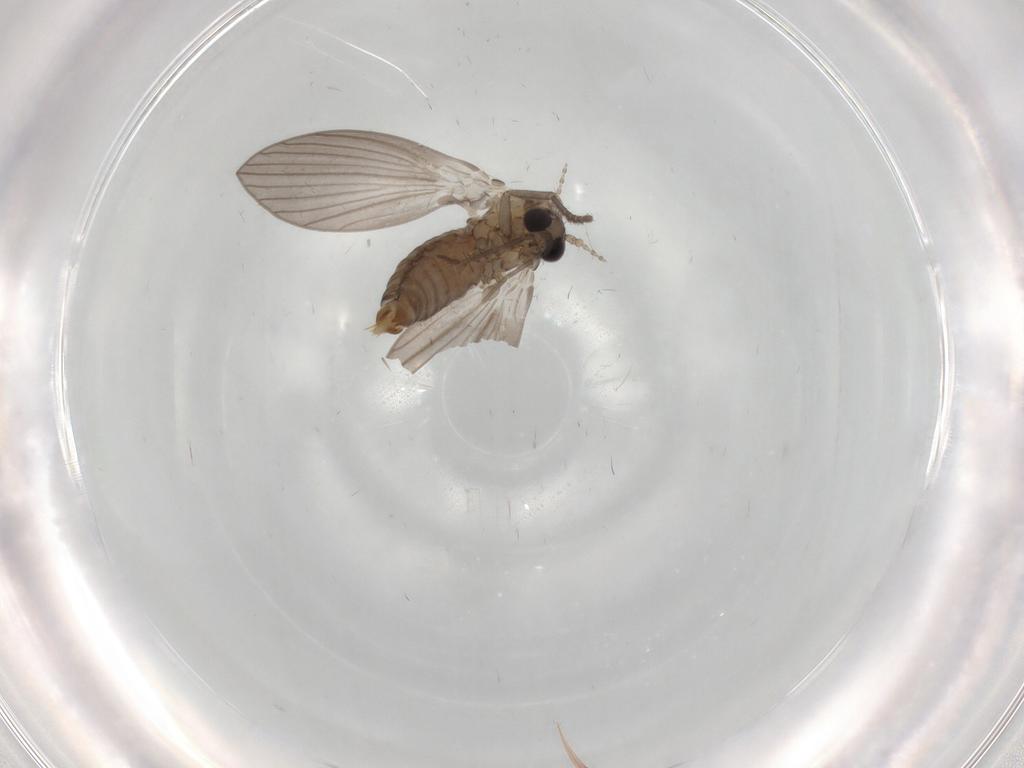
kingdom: Animalia
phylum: Arthropoda
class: Insecta
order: Diptera
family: Psychodidae
